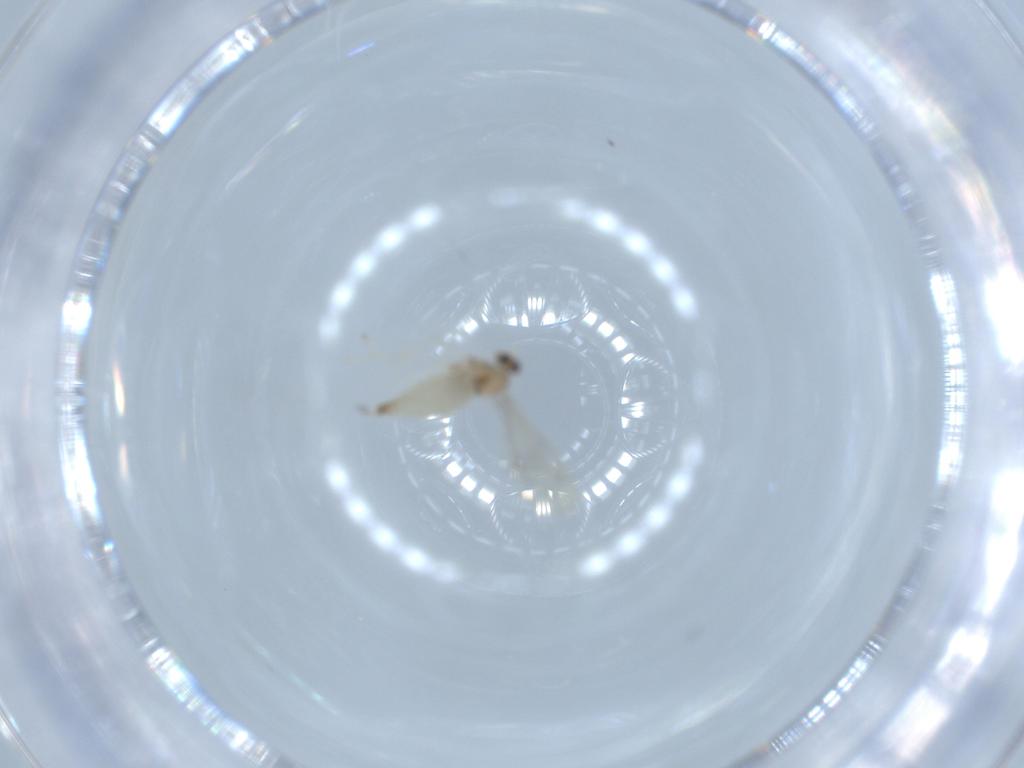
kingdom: Animalia
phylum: Arthropoda
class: Insecta
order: Diptera
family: Cecidomyiidae
